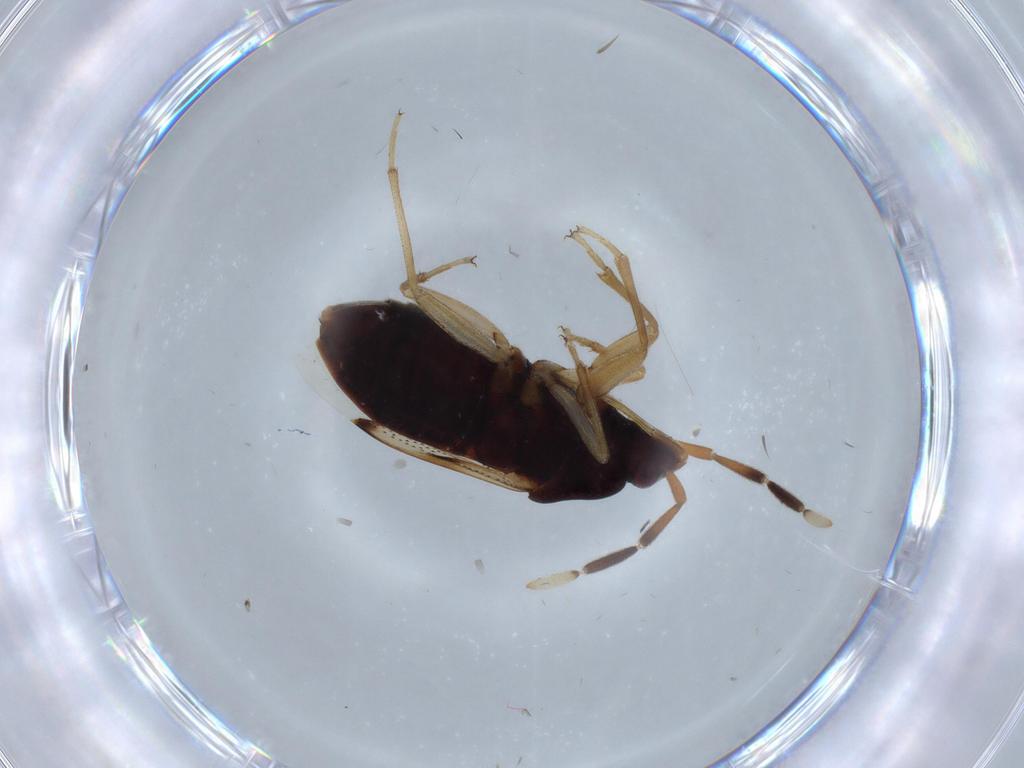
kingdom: Animalia
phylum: Arthropoda
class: Insecta
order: Hemiptera
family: Rhyparochromidae
